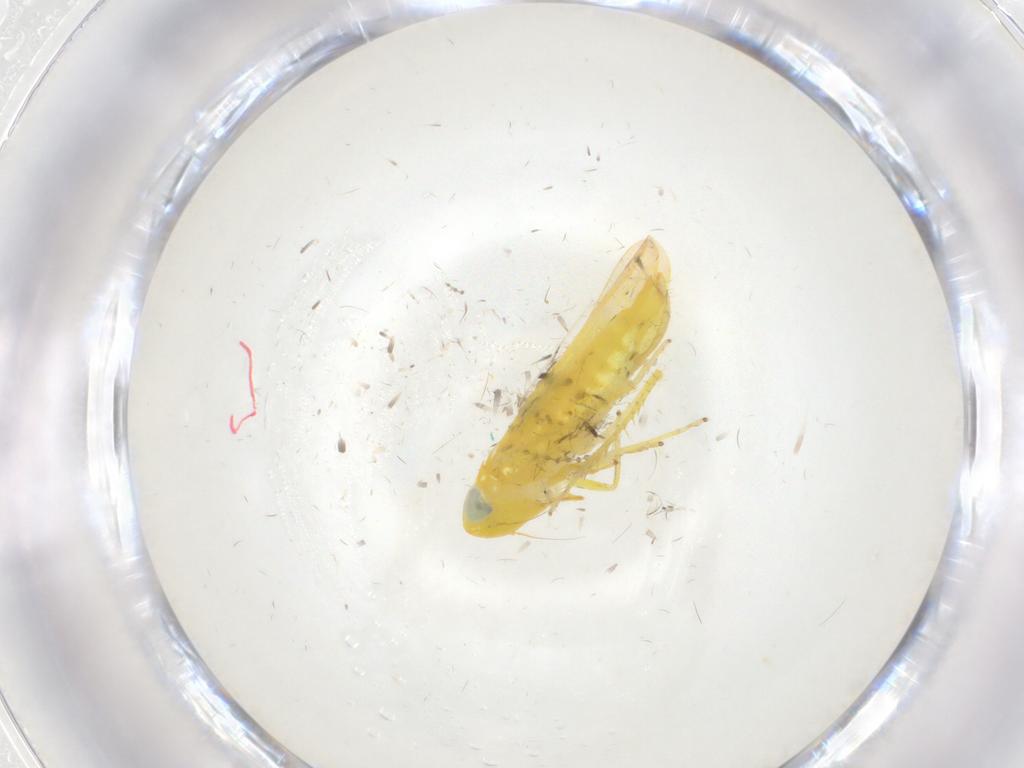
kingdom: Animalia
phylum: Arthropoda
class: Insecta
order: Hemiptera
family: Cicadellidae
